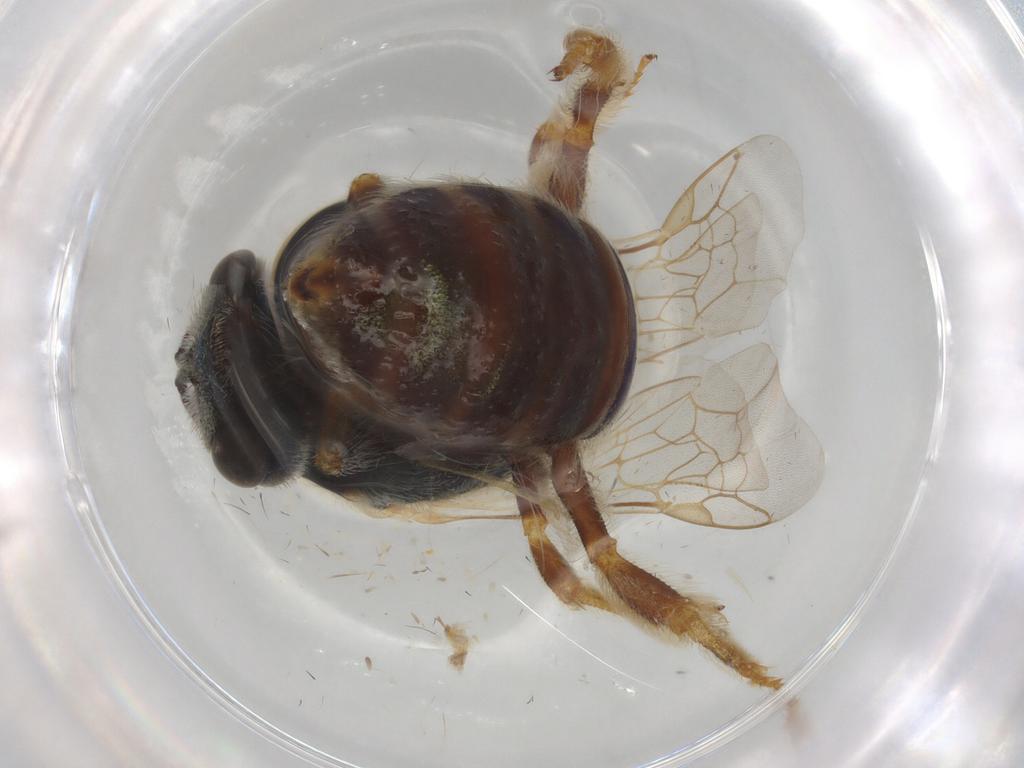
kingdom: Animalia
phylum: Arthropoda
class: Insecta
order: Hymenoptera
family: Halictidae
